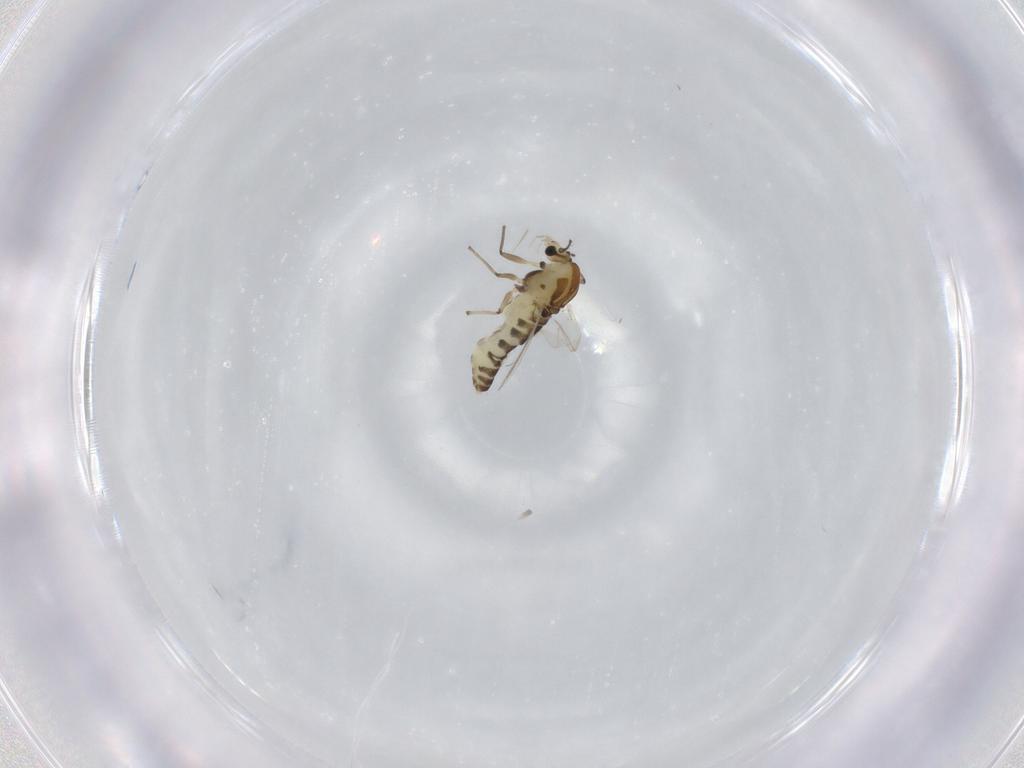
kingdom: Animalia
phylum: Arthropoda
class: Insecta
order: Diptera
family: Chironomidae
